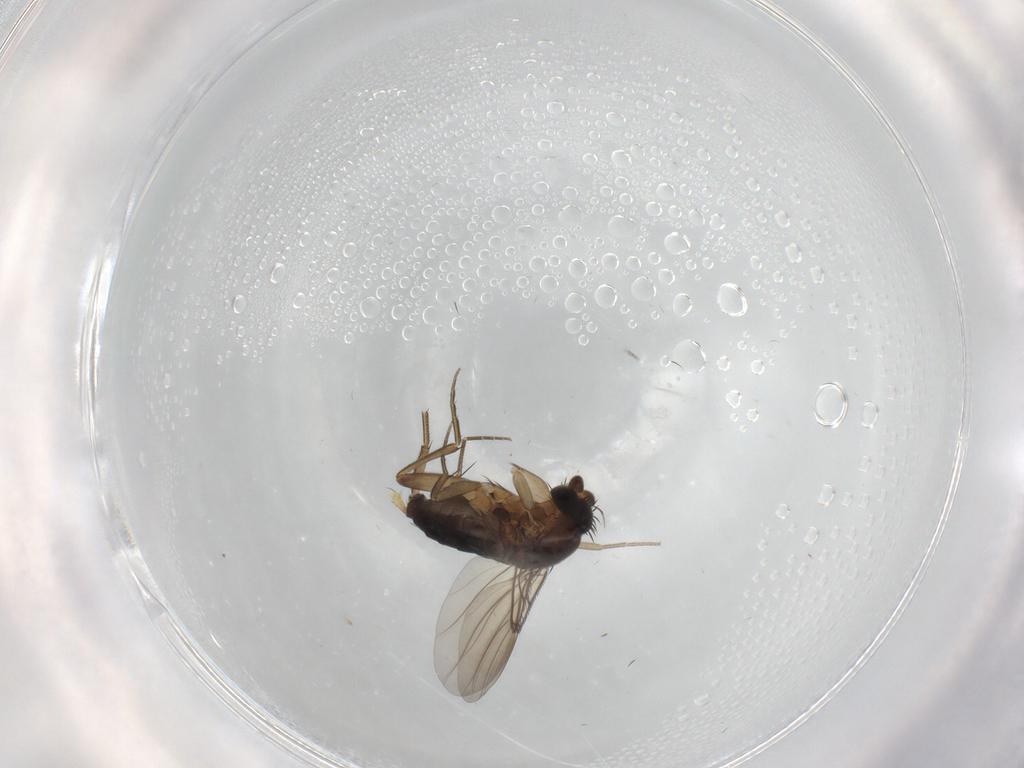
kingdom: Animalia
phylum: Arthropoda
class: Insecta
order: Diptera
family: Phoridae
